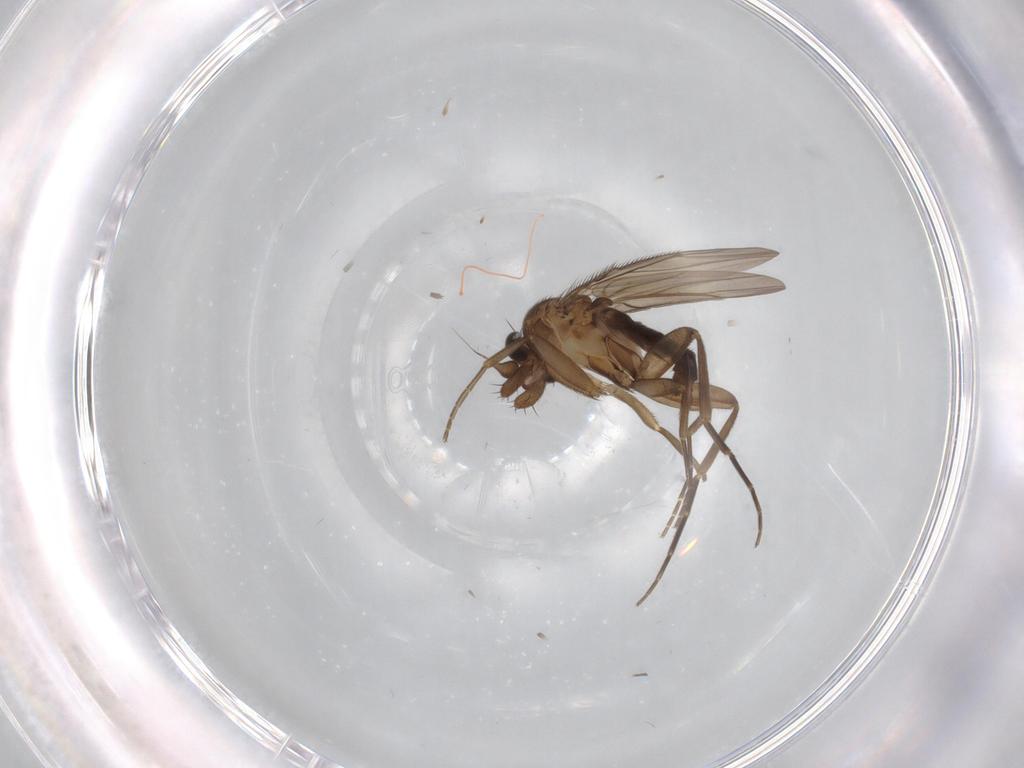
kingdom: Animalia
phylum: Arthropoda
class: Insecta
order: Diptera
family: Phoridae
